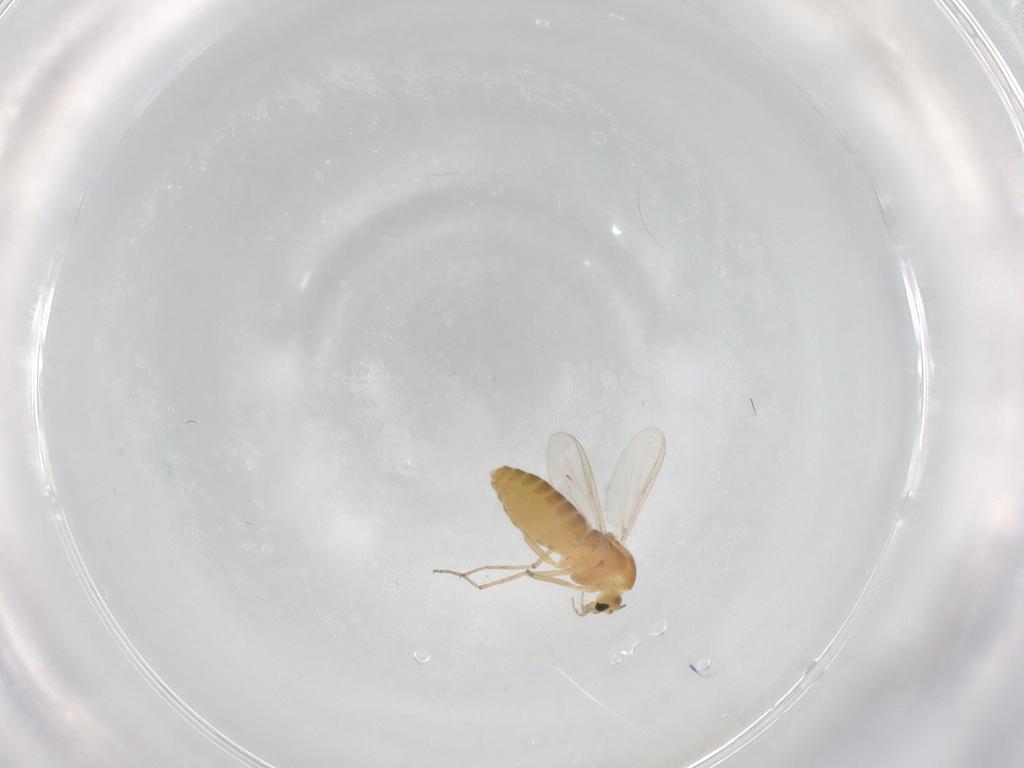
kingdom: Animalia
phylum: Arthropoda
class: Insecta
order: Diptera
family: Chironomidae
